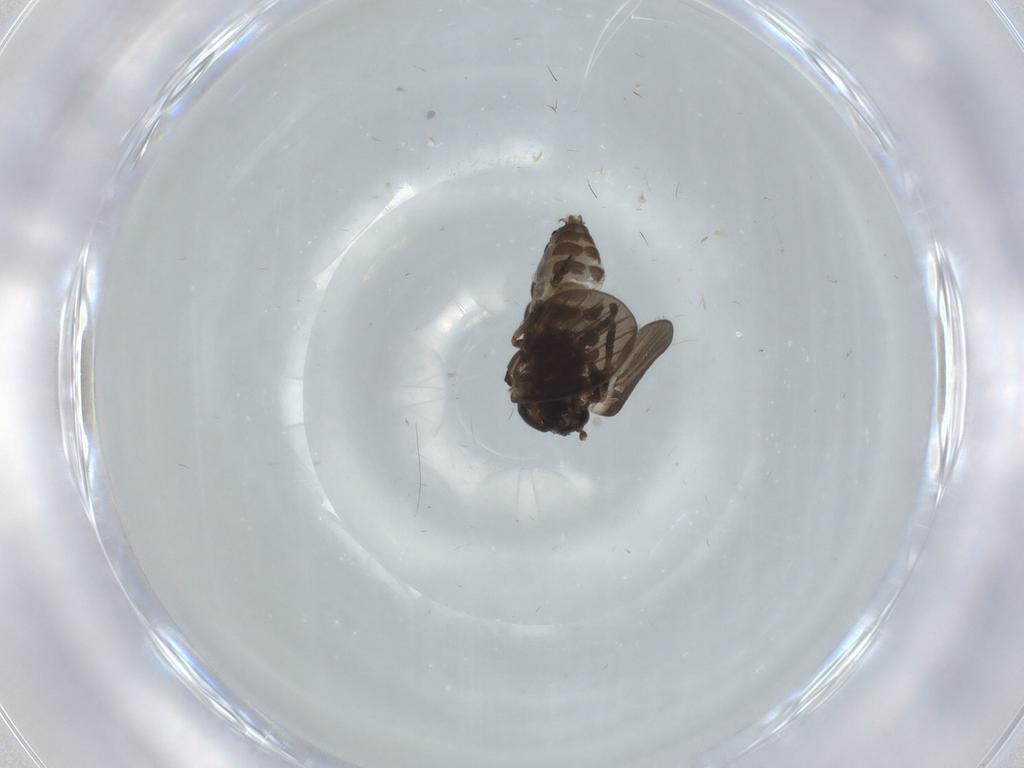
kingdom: Animalia
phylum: Arthropoda
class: Insecta
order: Diptera
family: Psychodidae
